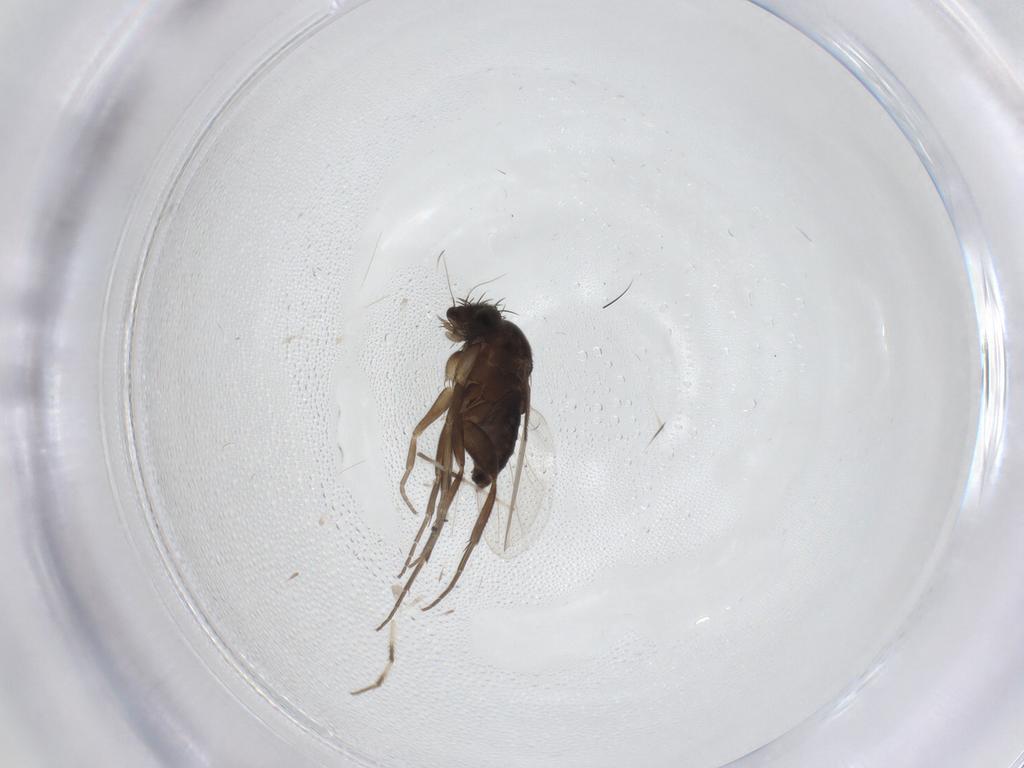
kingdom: Animalia
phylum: Arthropoda
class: Insecta
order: Diptera
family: Phoridae
